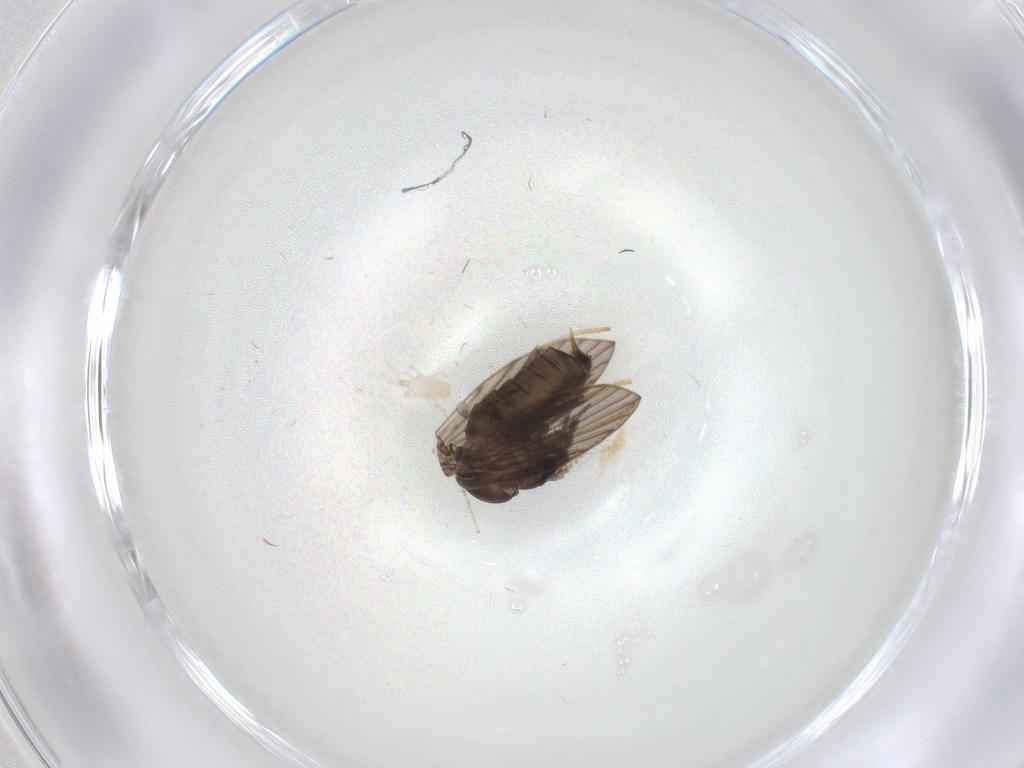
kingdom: Animalia
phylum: Arthropoda
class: Insecta
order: Diptera
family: Psychodidae
